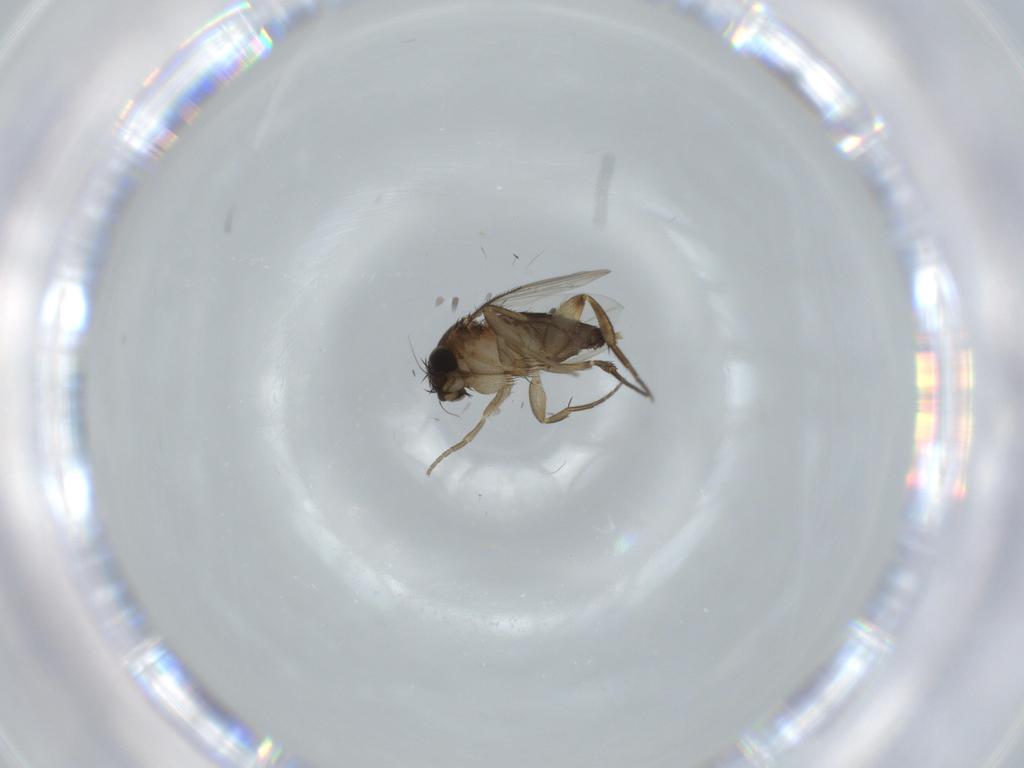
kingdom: Animalia
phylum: Arthropoda
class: Insecta
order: Diptera
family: Phoridae
